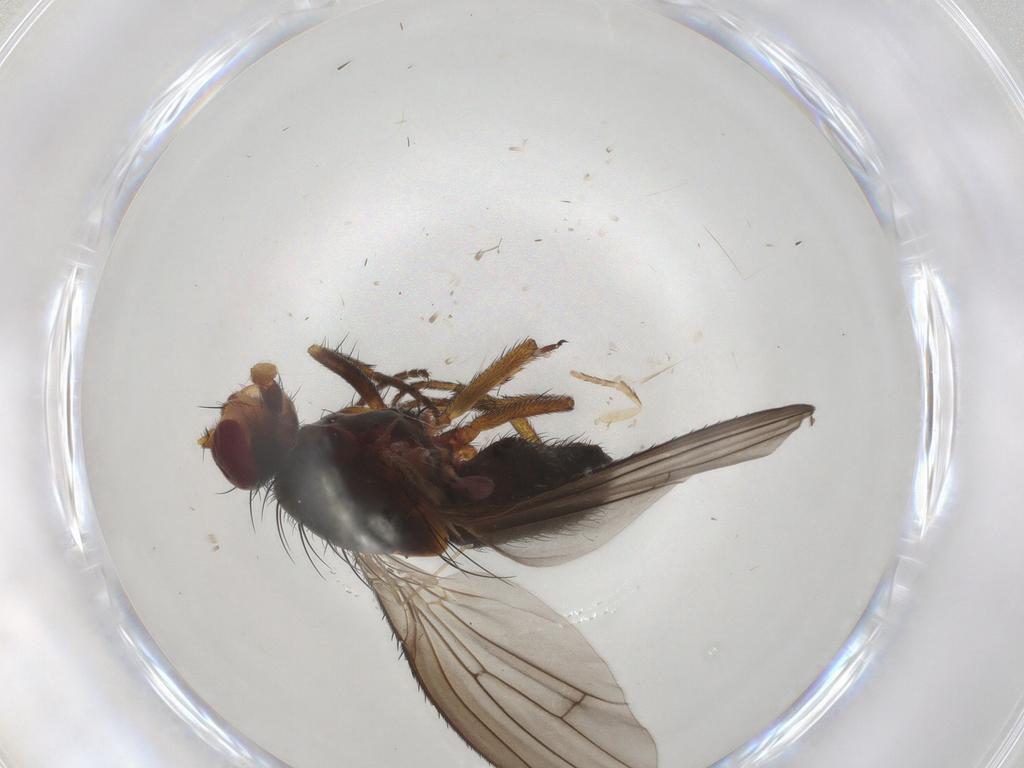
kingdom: Animalia
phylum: Arthropoda
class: Insecta
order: Diptera
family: Heleomyzidae
